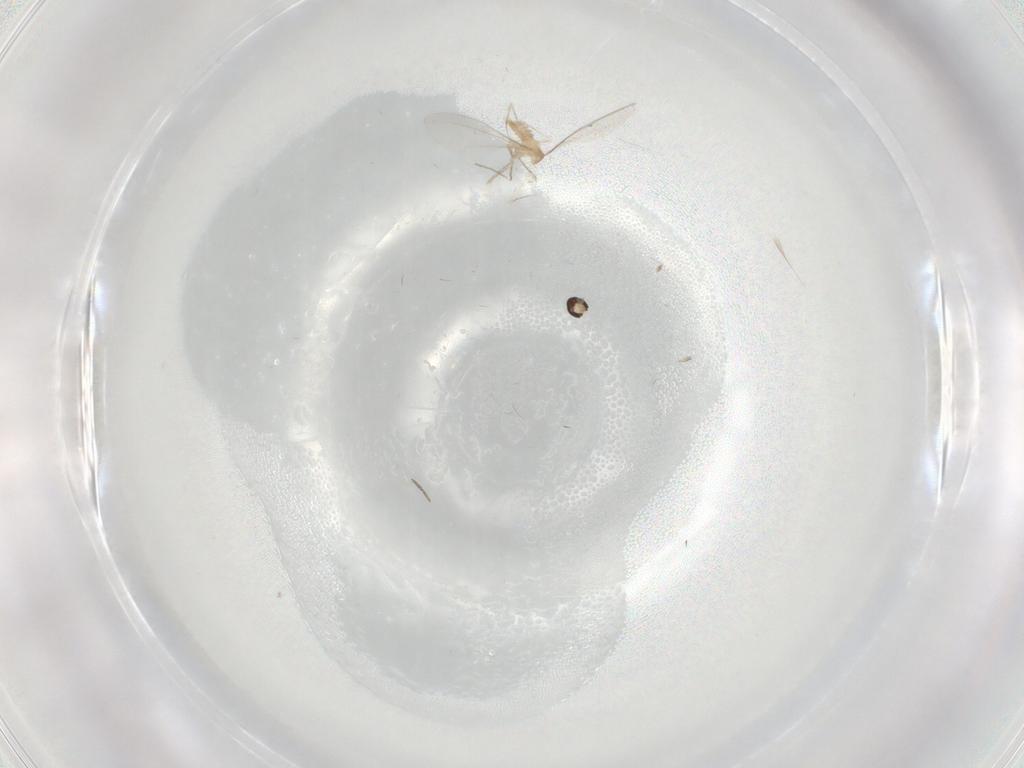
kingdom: Animalia
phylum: Arthropoda
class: Insecta
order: Diptera
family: Cecidomyiidae
